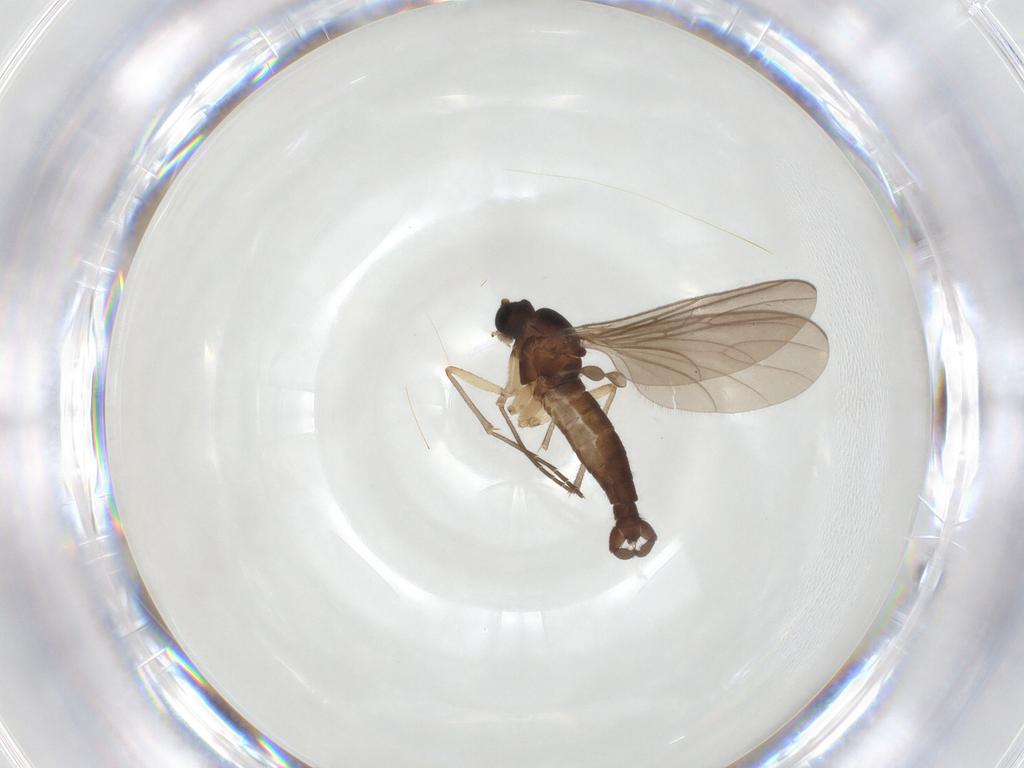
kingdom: Animalia
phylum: Arthropoda
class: Insecta
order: Diptera
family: Sciaridae
